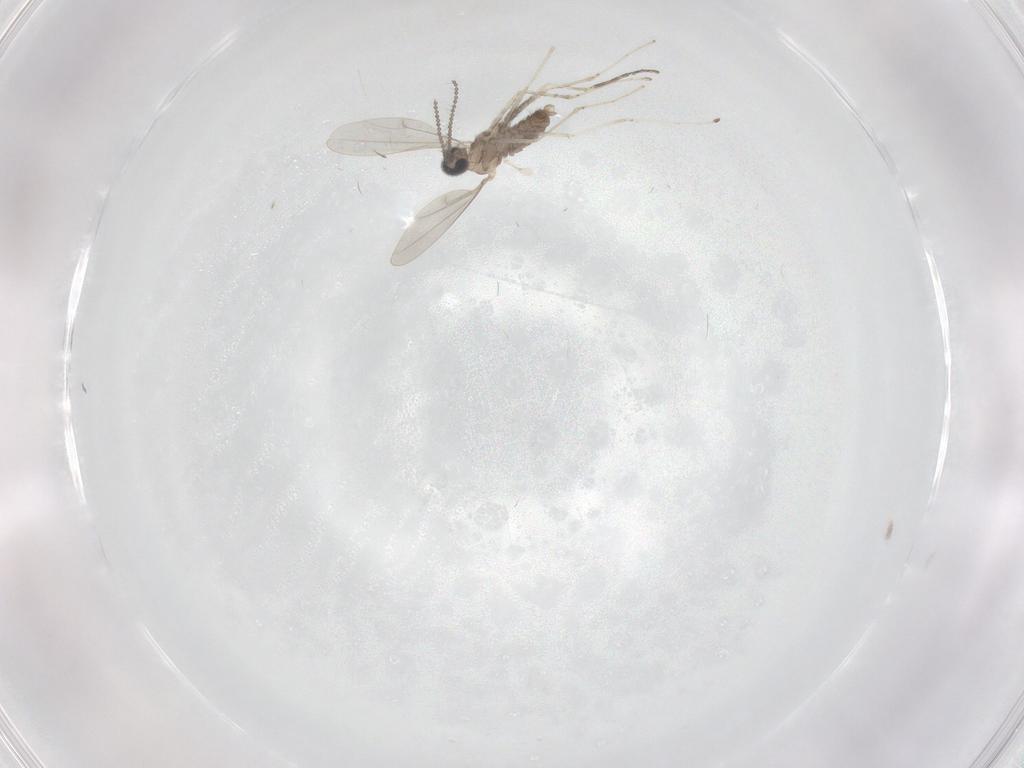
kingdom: Animalia
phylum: Arthropoda
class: Insecta
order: Diptera
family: Cecidomyiidae
